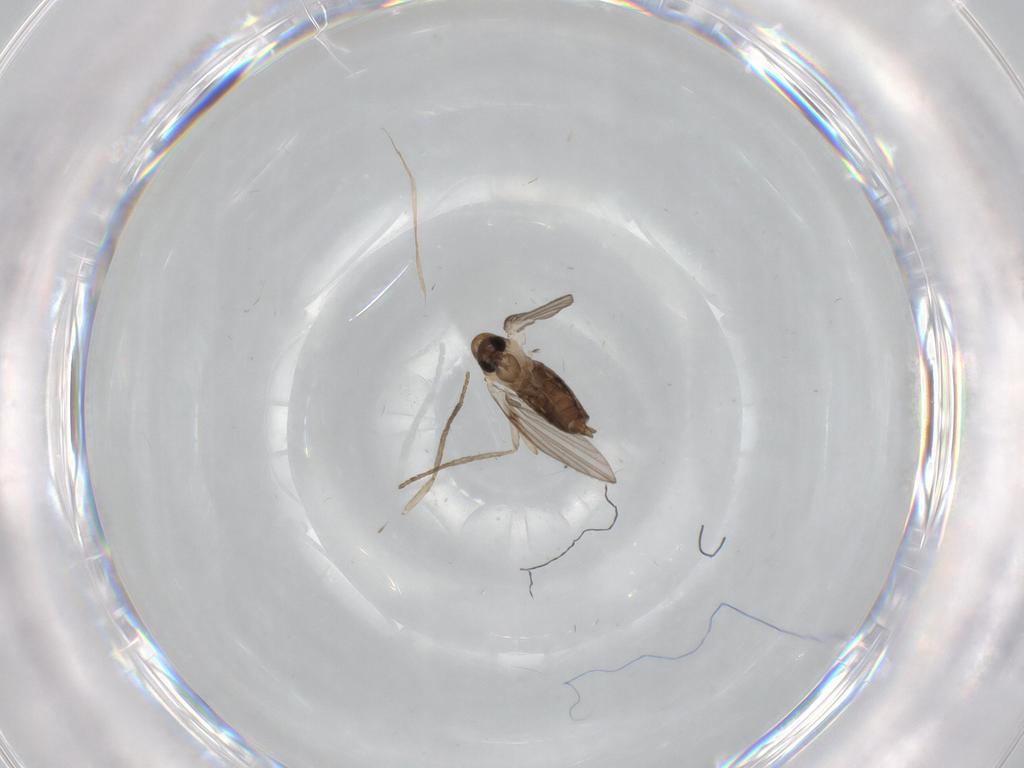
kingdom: Animalia
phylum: Arthropoda
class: Insecta
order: Diptera
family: Psychodidae
